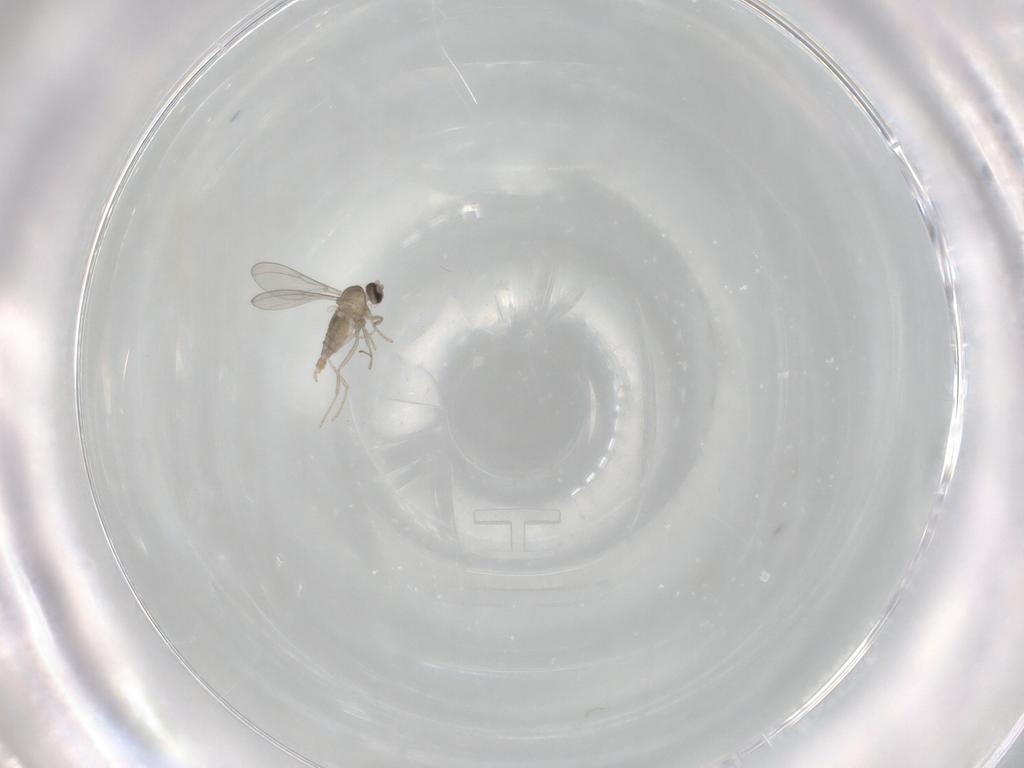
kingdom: Animalia
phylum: Arthropoda
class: Insecta
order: Diptera
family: Cecidomyiidae
